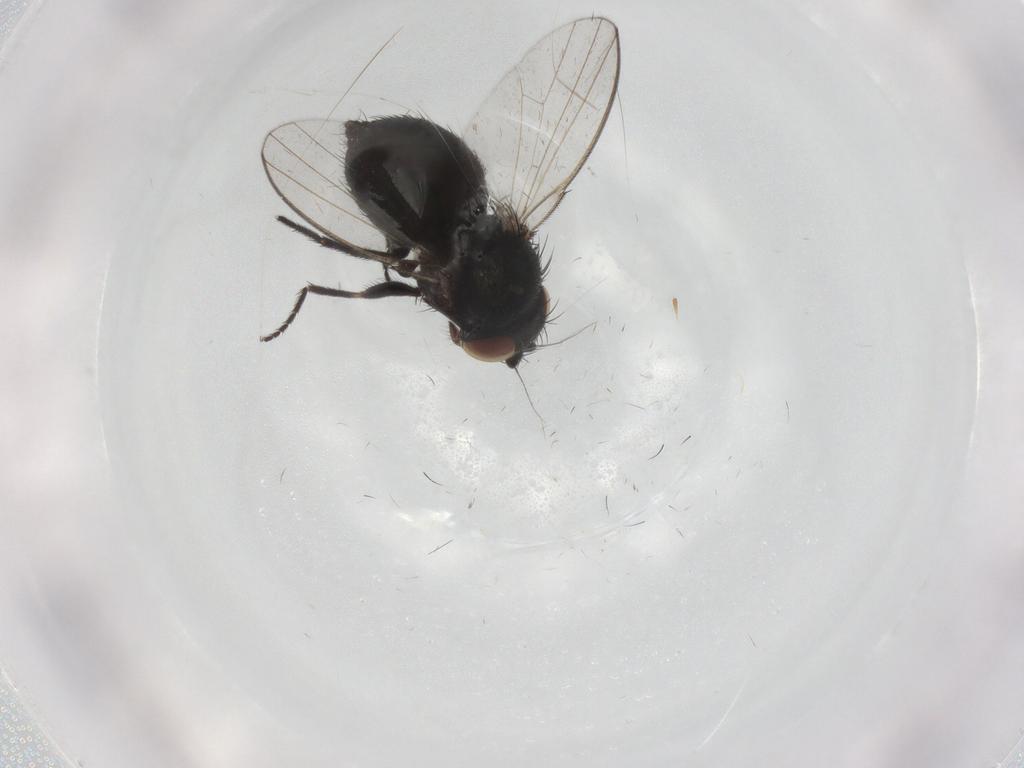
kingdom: Animalia
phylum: Arthropoda
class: Insecta
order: Diptera
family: Milichiidae
